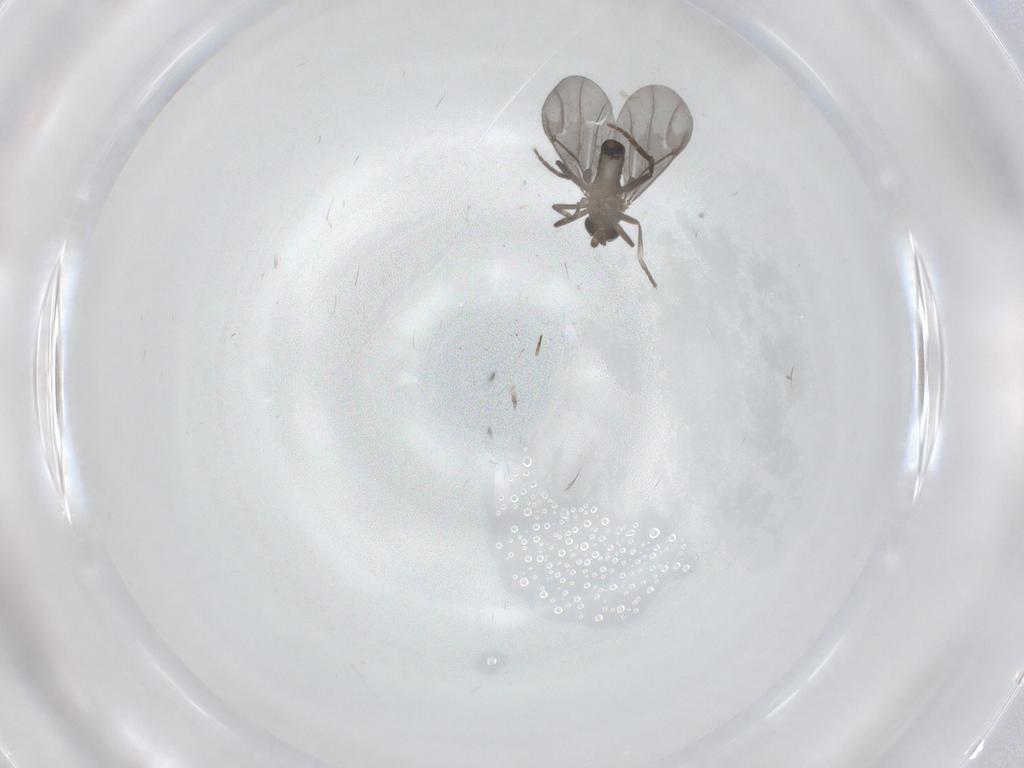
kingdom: Animalia
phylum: Arthropoda
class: Insecta
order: Diptera
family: Phoridae
